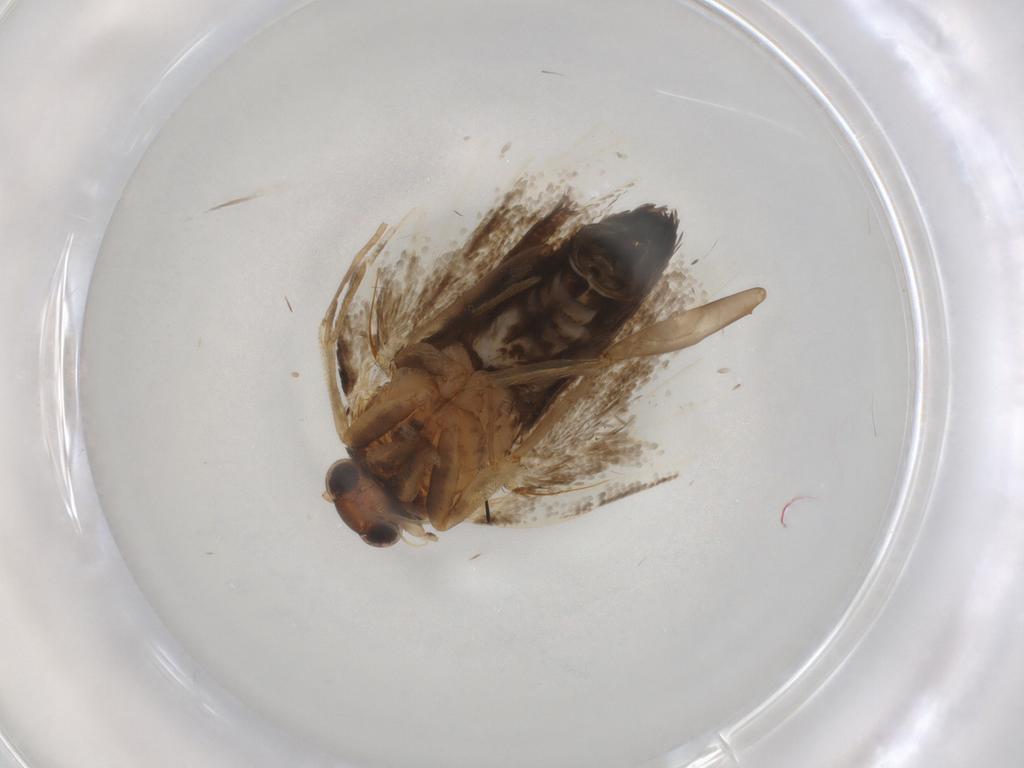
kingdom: Animalia
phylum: Arthropoda
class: Insecta
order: Lepidoptera
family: Tortricidae
